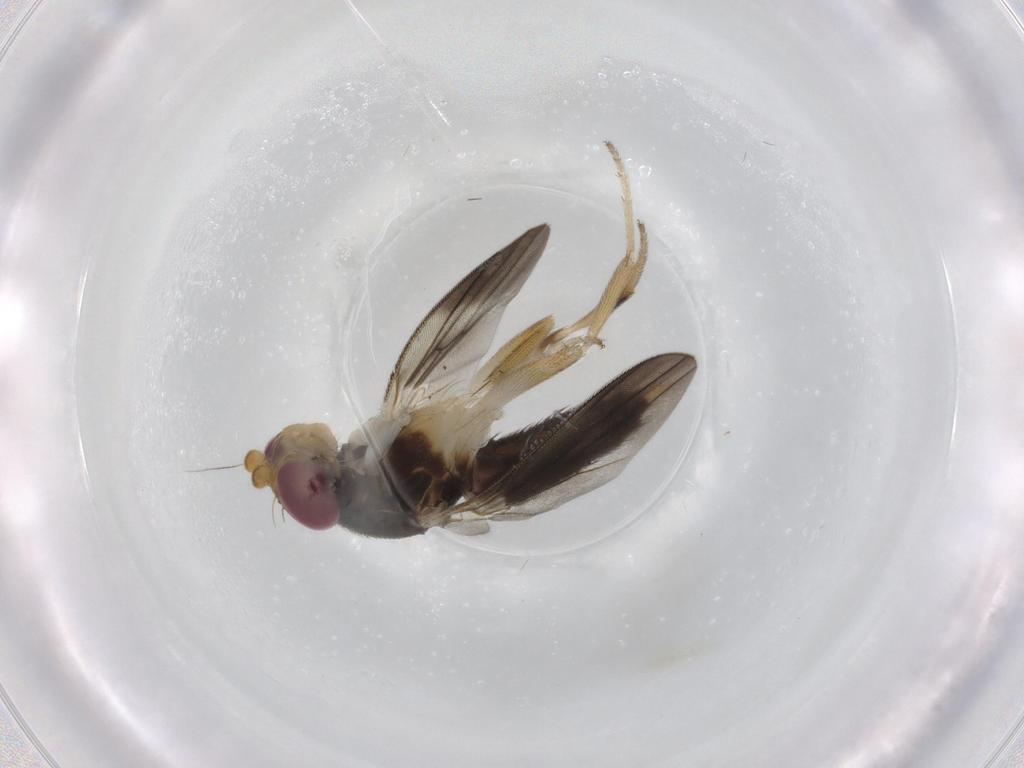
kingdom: Animalia
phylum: Arthropoda
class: Insecta
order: Diptera
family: Clusiidae
